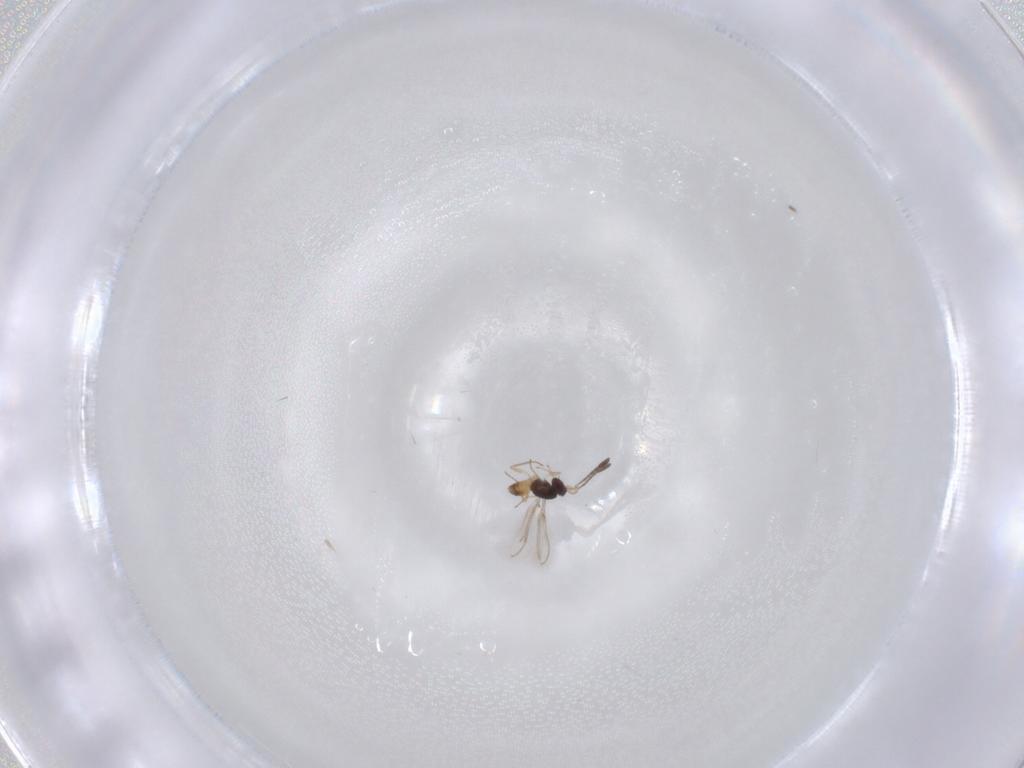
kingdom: Animalia
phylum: Arthropoda
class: Insecta
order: Hymenoptera
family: Mymaridae
